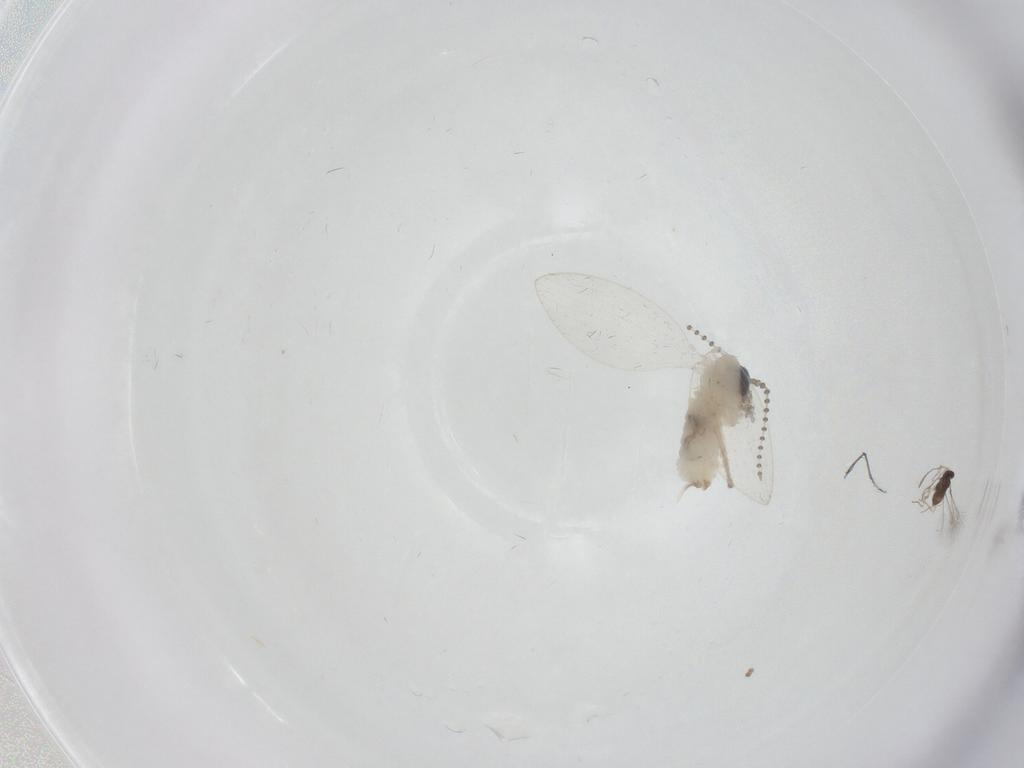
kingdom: Animalia
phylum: Arthropoda
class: Insecta
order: Diptera
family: Psychodidae
